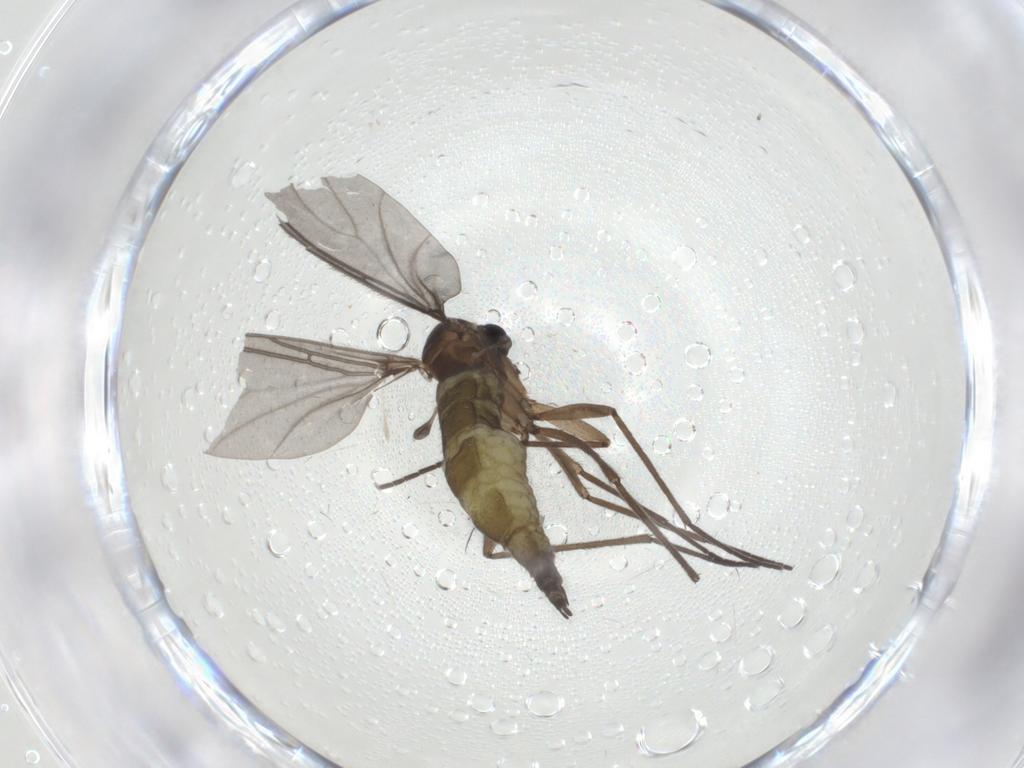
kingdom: Animalia
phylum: Arthropoda
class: Insecta
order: Diptera
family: Sciaridae
